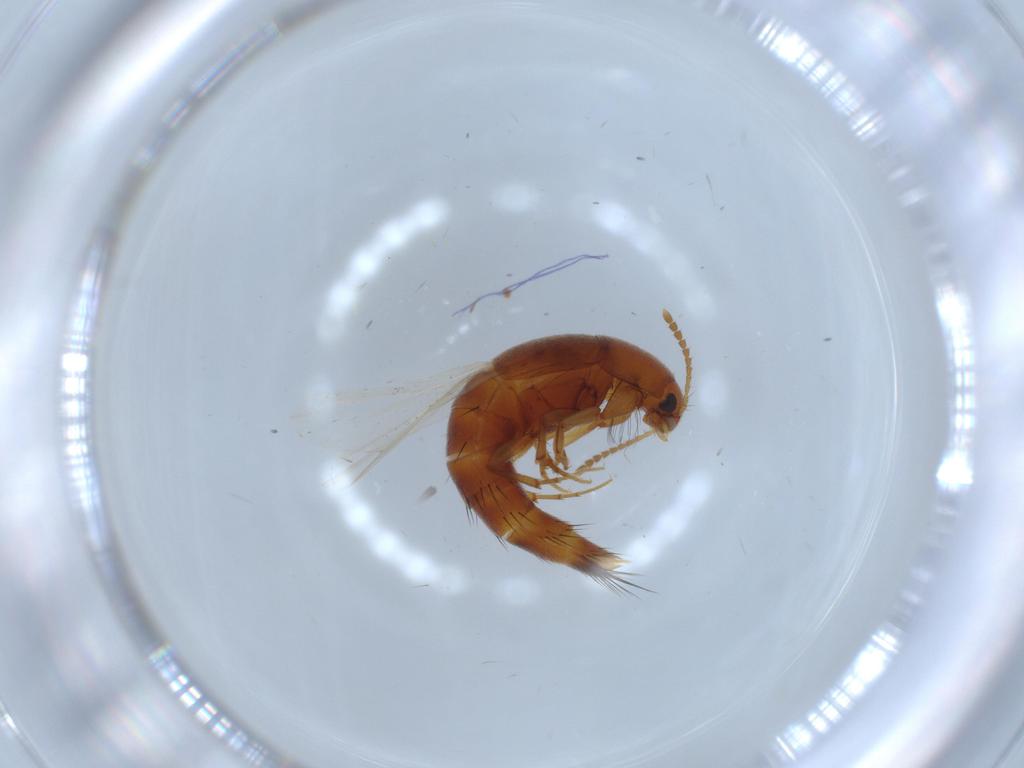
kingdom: Animalia
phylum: Arthropoda
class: Insecta
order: Coleoptera
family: Staphylinidae
